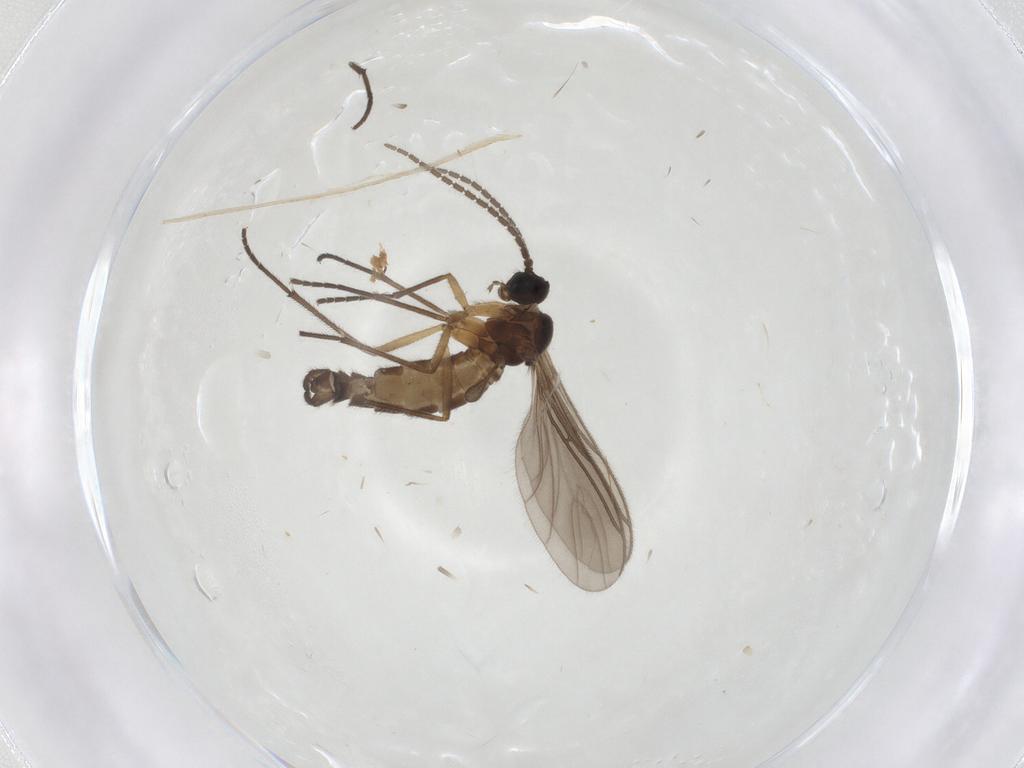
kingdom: Animalia
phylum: Arthropoda
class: Insecta
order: Diptera
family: Sciaridae
